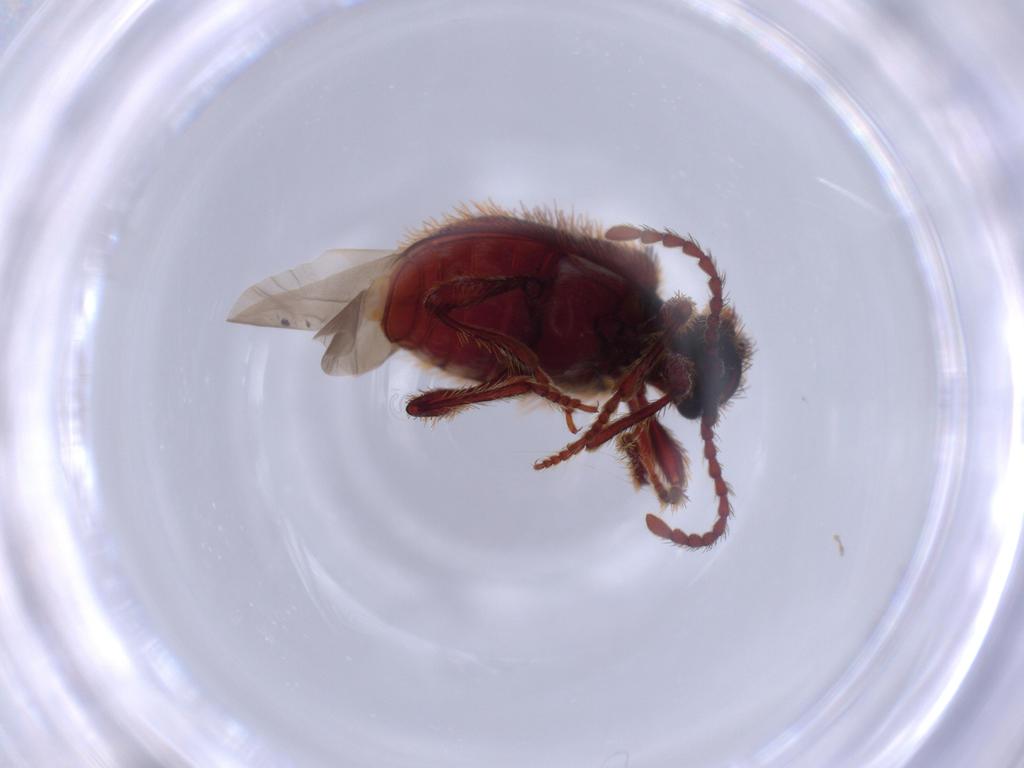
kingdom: Animalia
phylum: Arthropoda
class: Insecta
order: Coleoptera
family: Ptinidae
